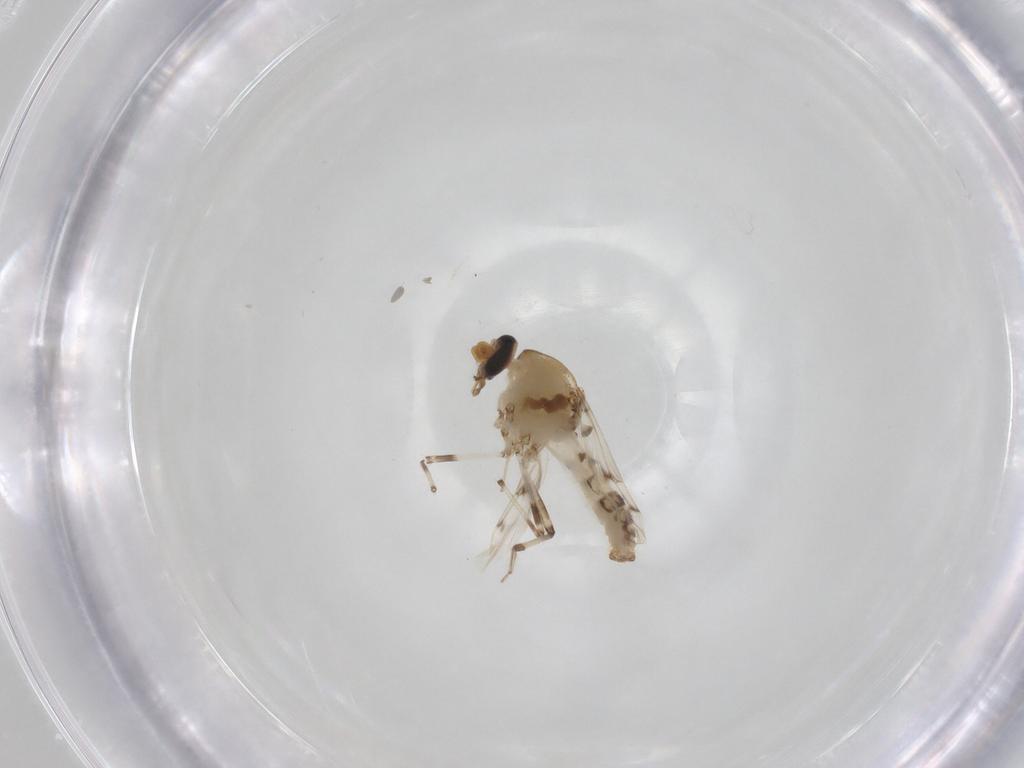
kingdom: Animalia
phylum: Arthropoda
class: Insecta
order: Diptera
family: Ceratopogonidae
